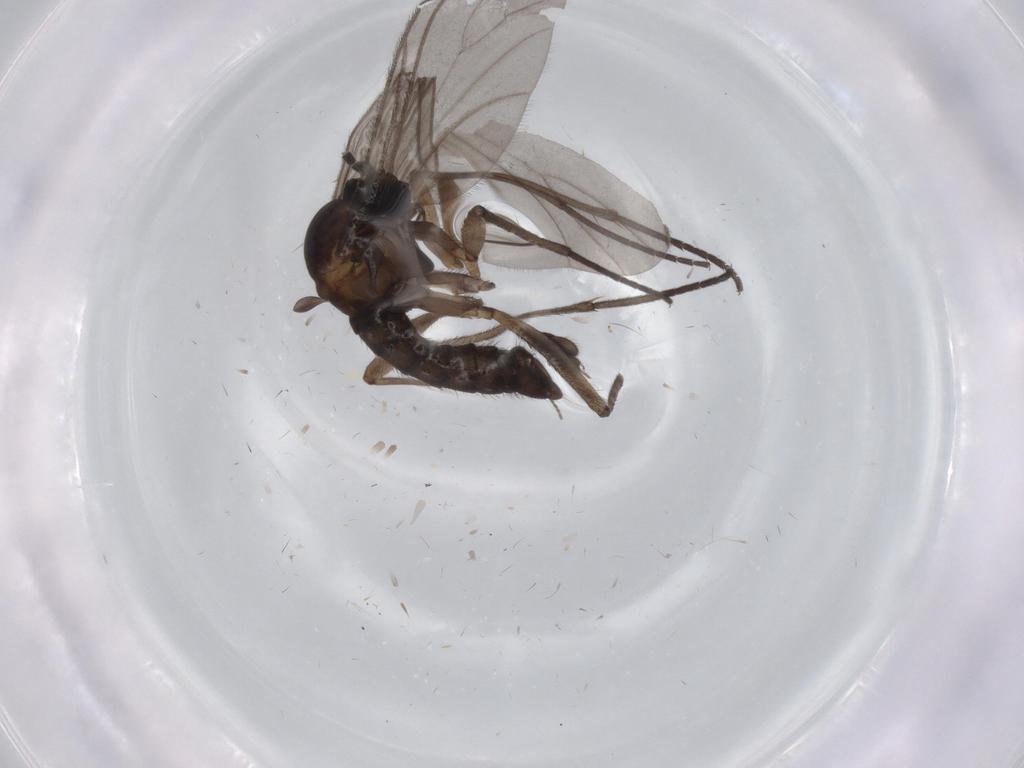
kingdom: Animalia
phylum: Arthropoda
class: Insecta
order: Diptera
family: Sciaridae
